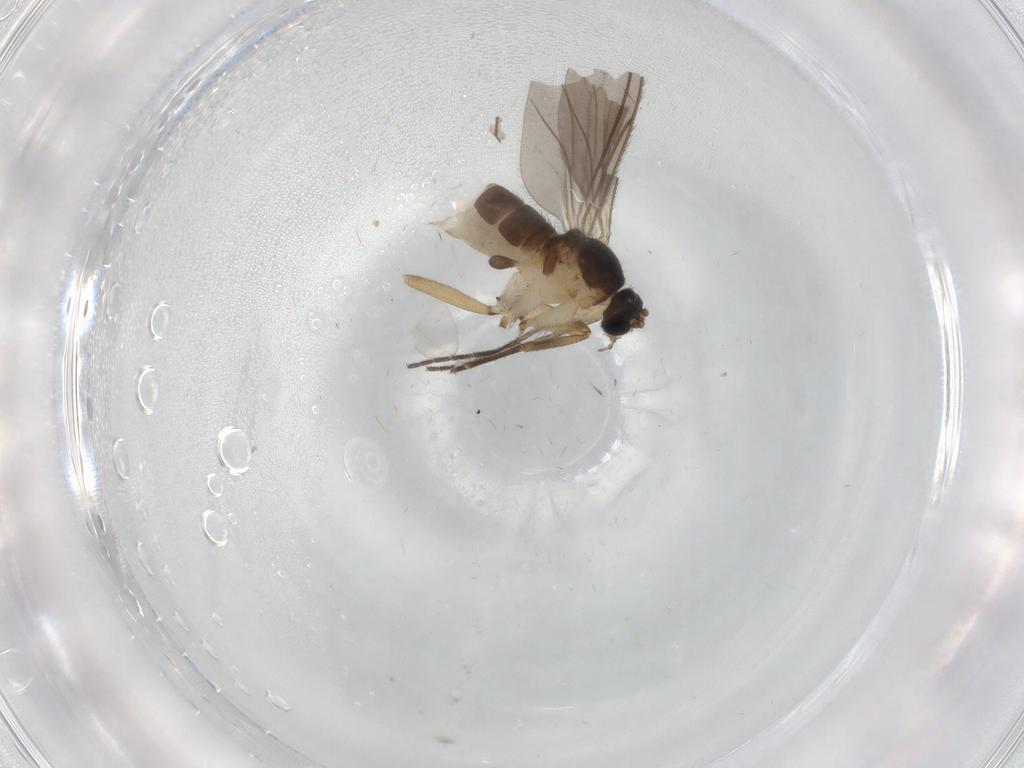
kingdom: Animalia
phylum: Arthropoda
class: Insecta
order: Diptera
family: Sciaridae
